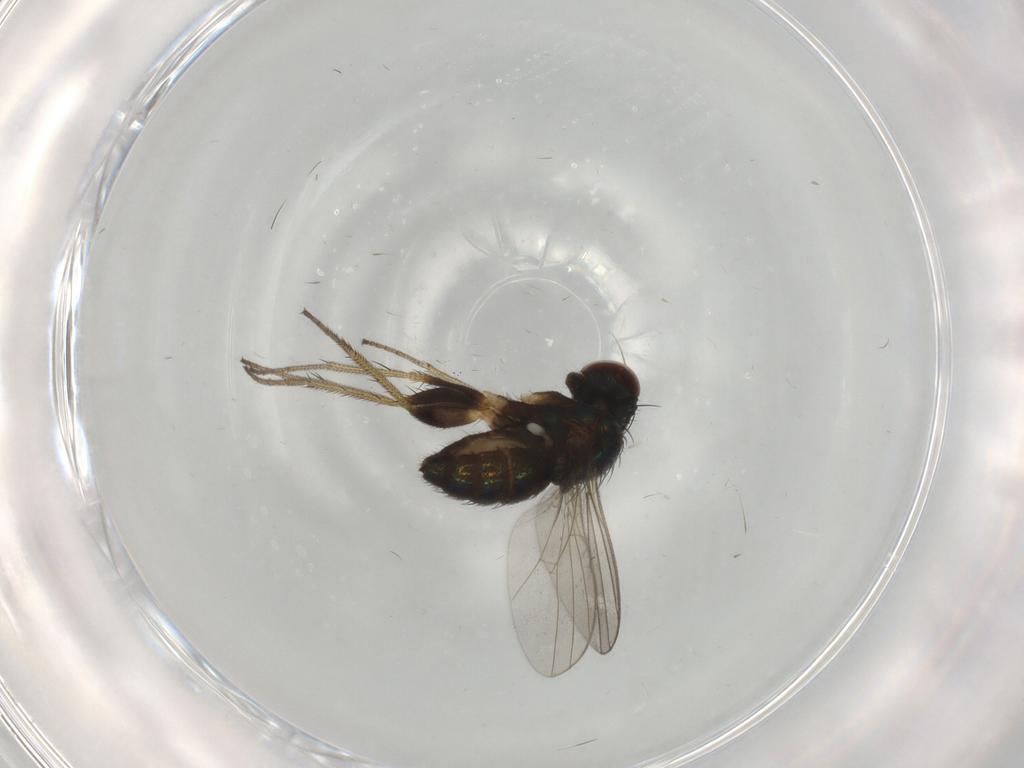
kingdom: Animalia
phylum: Arthropoda
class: Insecta
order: Diptera
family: Dolichopodidae
